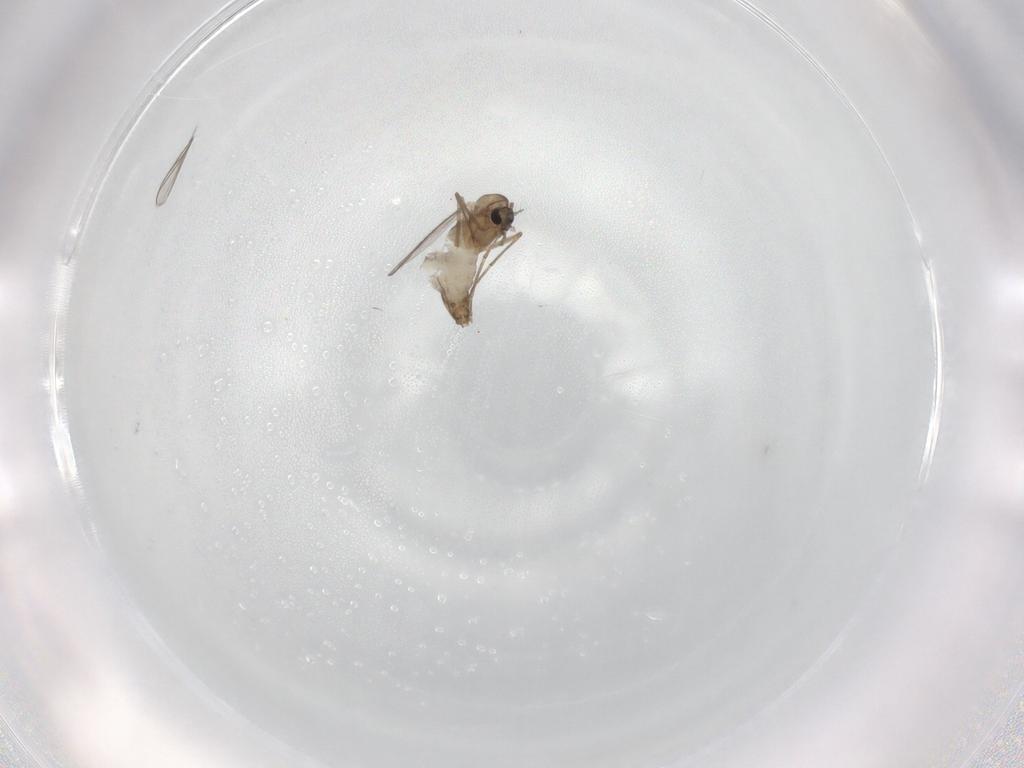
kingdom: Animalia
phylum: Arthropoda
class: Insecta
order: Diptera
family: Chironomidae
